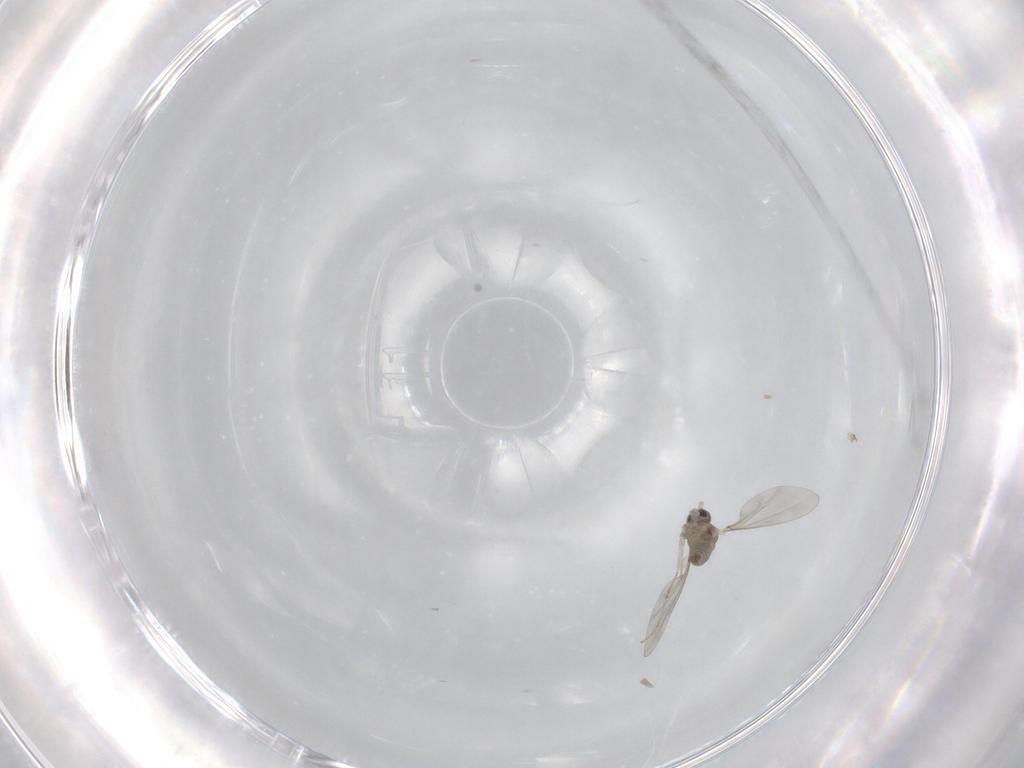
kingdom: Animalia
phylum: Arthropoda
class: Insecta
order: Diptera
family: Cecidomyiidae
